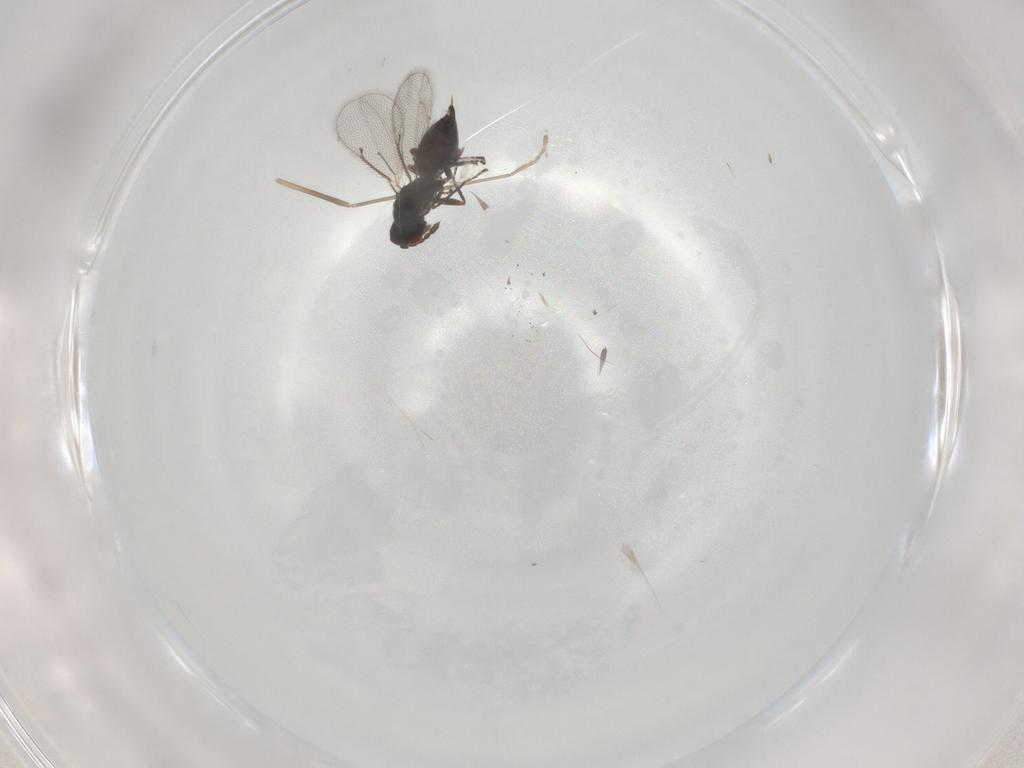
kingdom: Animalia
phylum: Arthropoda
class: Insecta
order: Hymenoptera
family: Eulophidae
